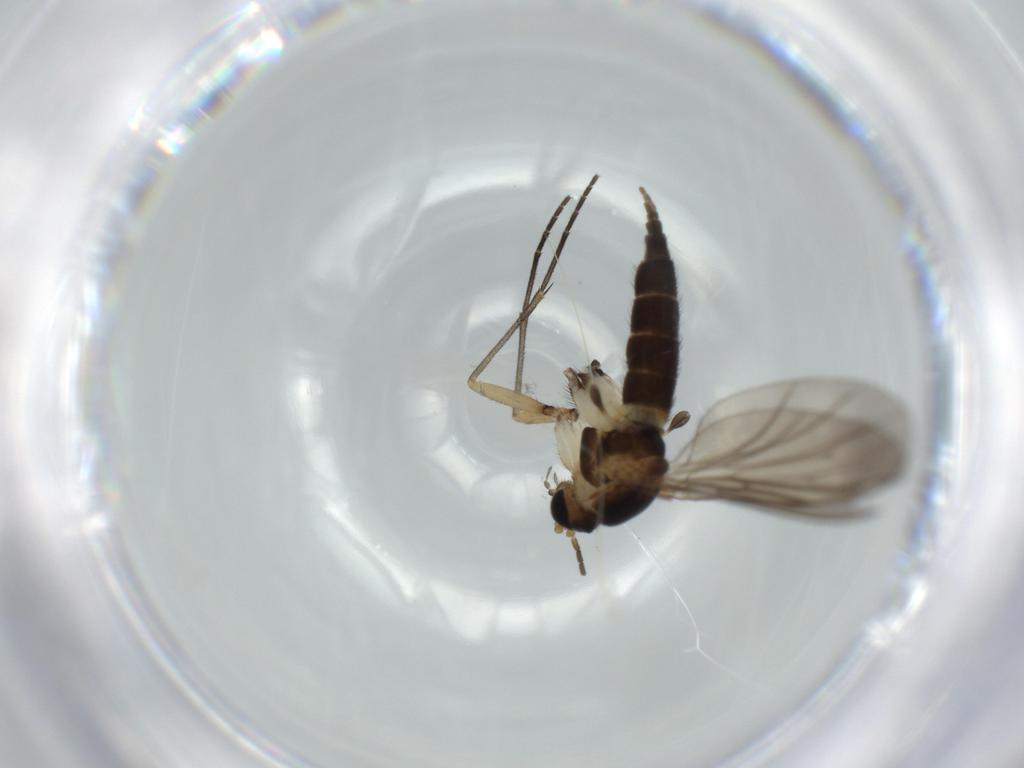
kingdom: Animalia
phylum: Arthropoda
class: Insecta
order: Diptera
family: Sciaridae
